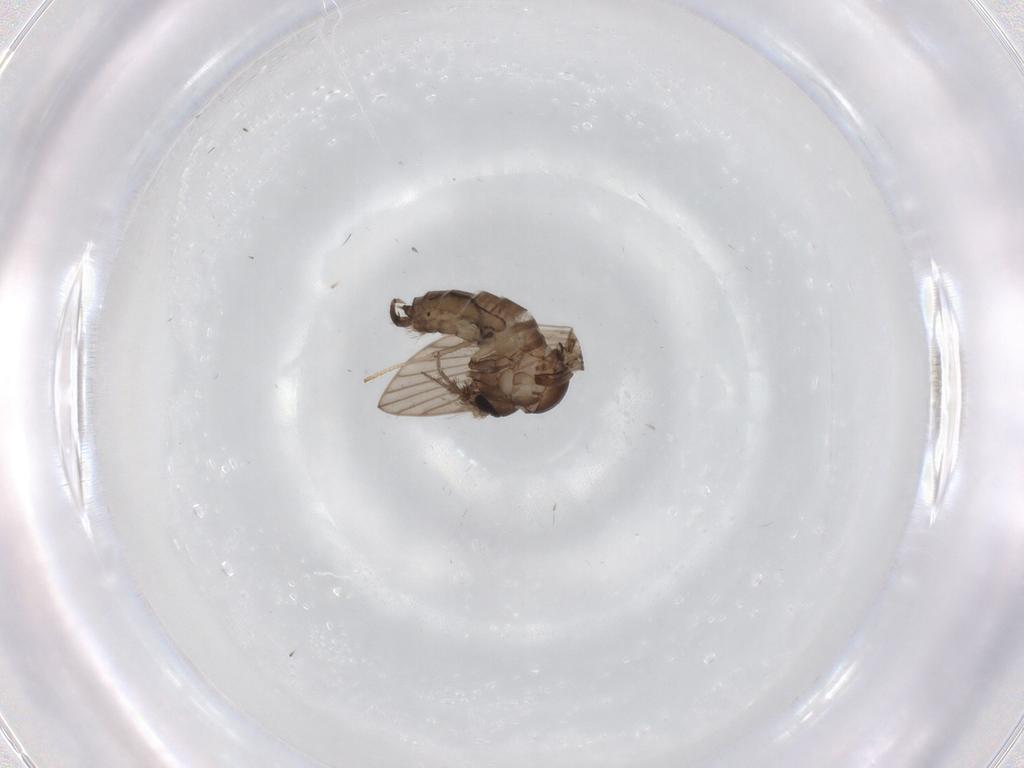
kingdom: Animalia
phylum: Arthropoda
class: Insecta
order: Diptera
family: Psychodidae
